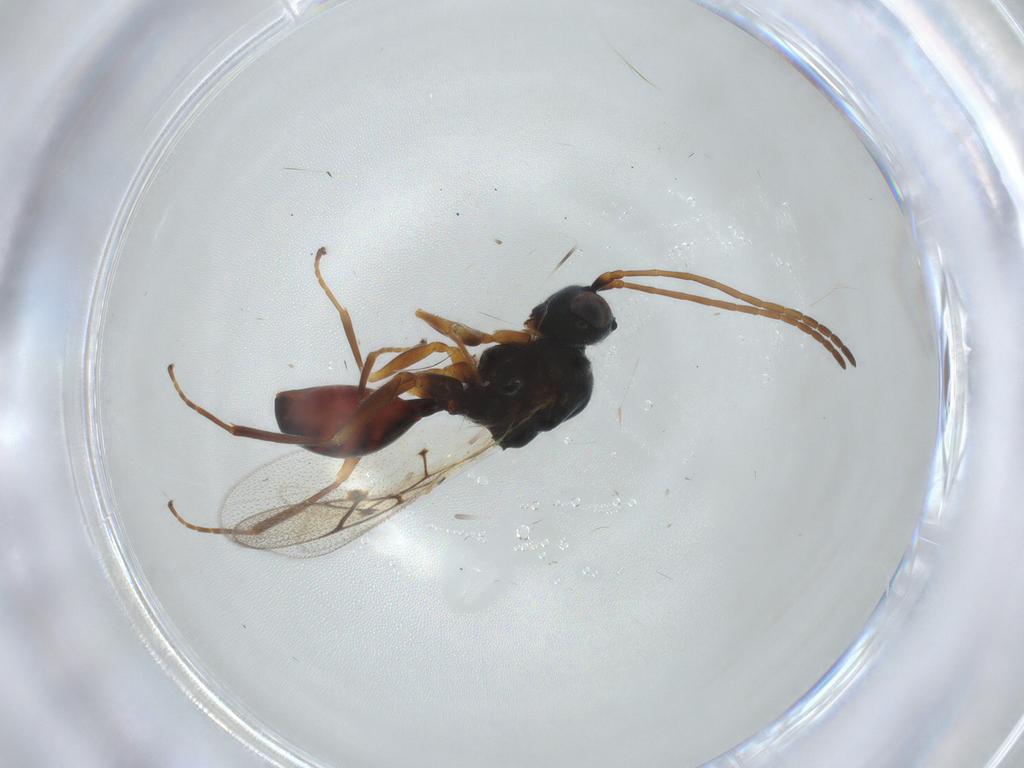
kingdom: Animalia
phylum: Arthropoda
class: Insecta
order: Hymenoptera
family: Figitidae
